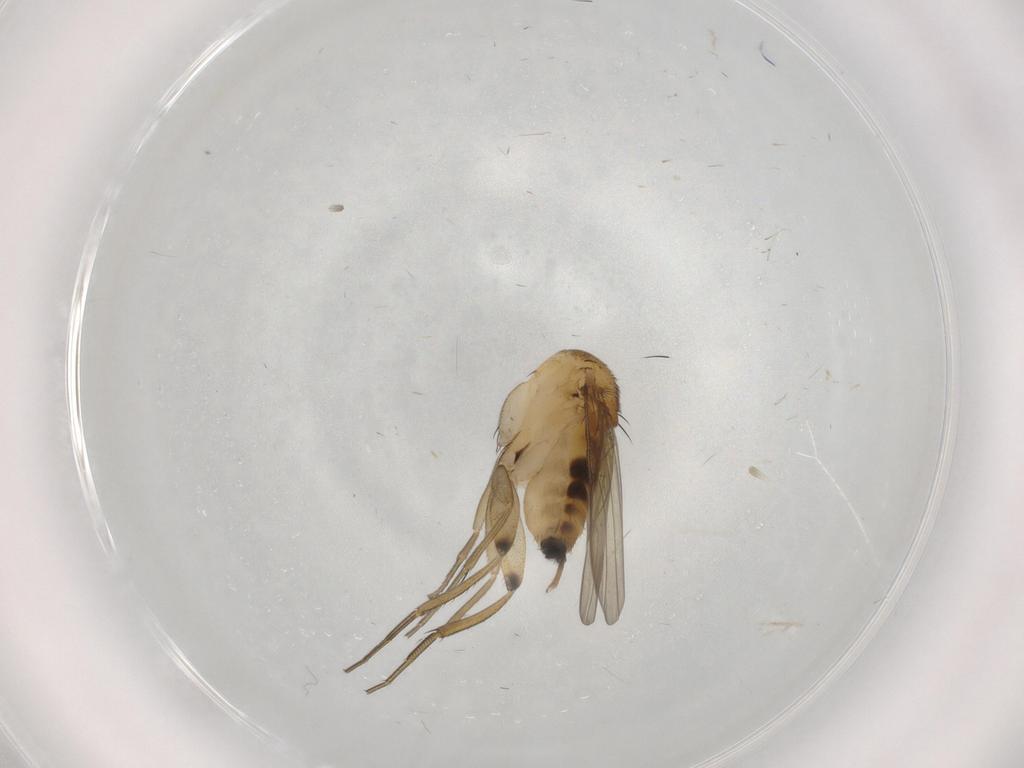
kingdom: Animalia
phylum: Arthropoda
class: Insecta
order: Diptera
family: Phoridae
